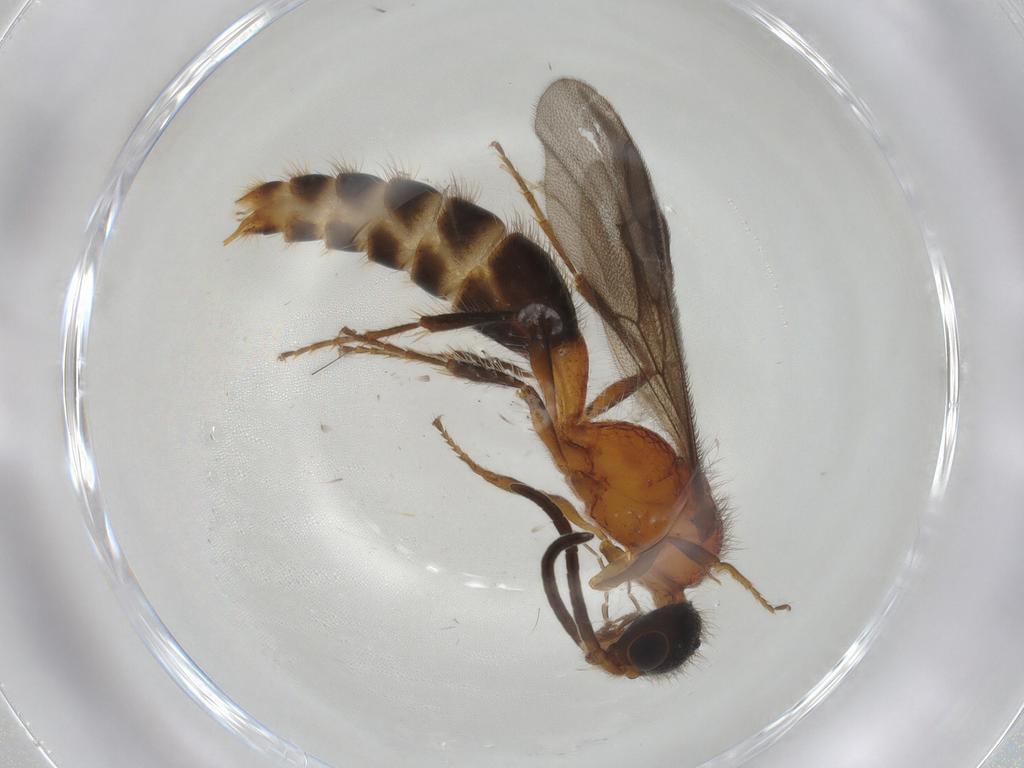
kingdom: Animalia
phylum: Arthropoda
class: Insecta
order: Hymenoptera
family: Mutillidae
